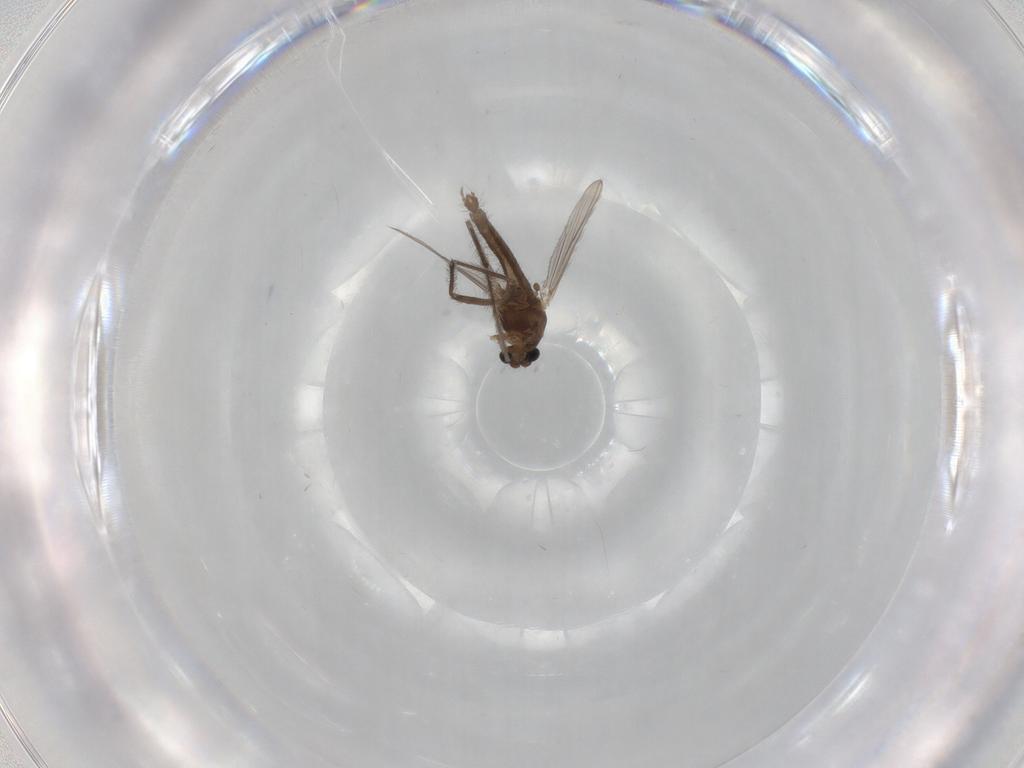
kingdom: Animalia
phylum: Arthropoda
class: Insecta
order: Diptera
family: Chironomidae
